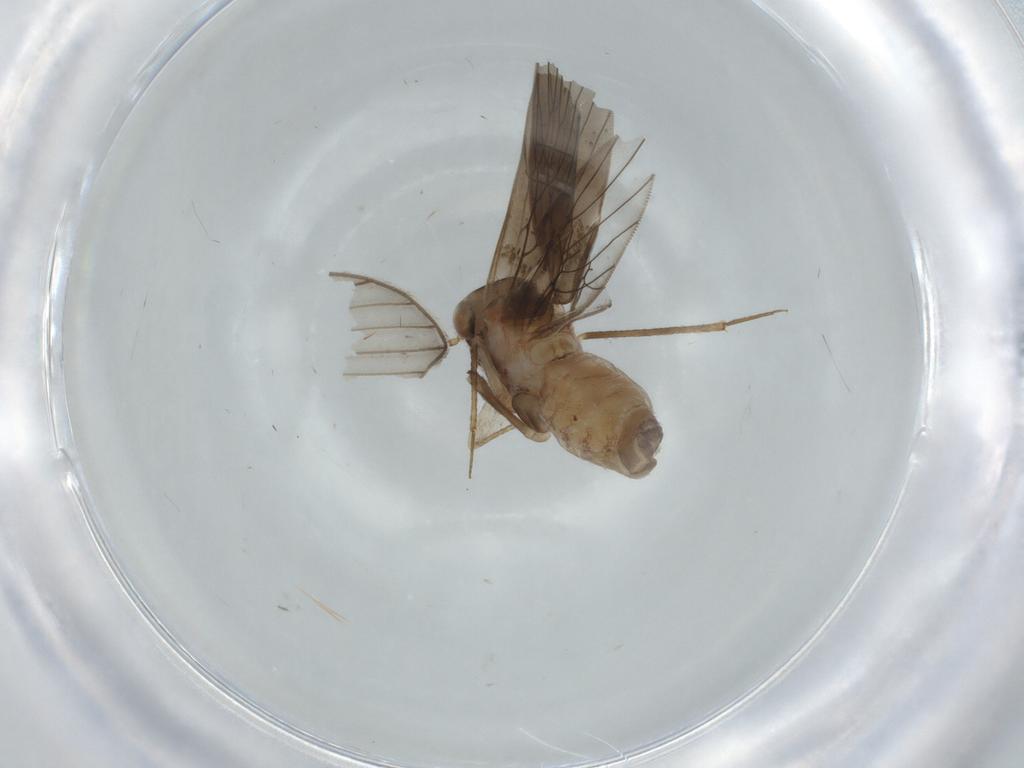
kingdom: Animalia
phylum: Arthropoda
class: Insecta
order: Psocodea
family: Lepidopsocidae
